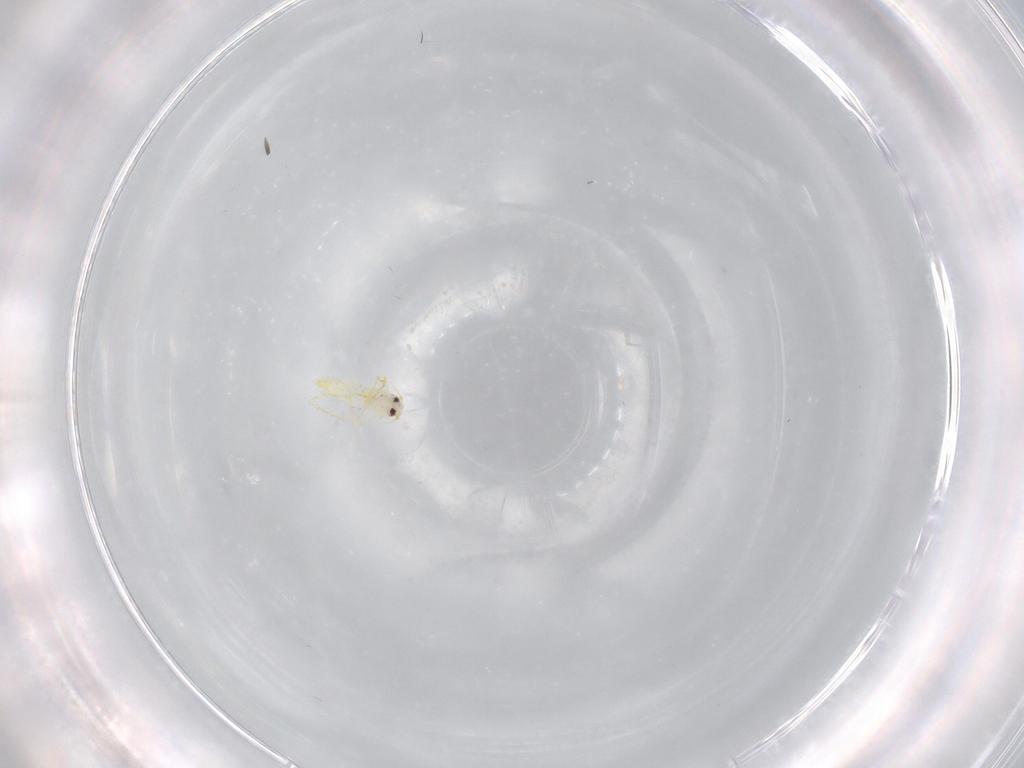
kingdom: Animalia
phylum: Arthropoda
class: Insecta
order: Hemiptera
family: Aleyrodidae
